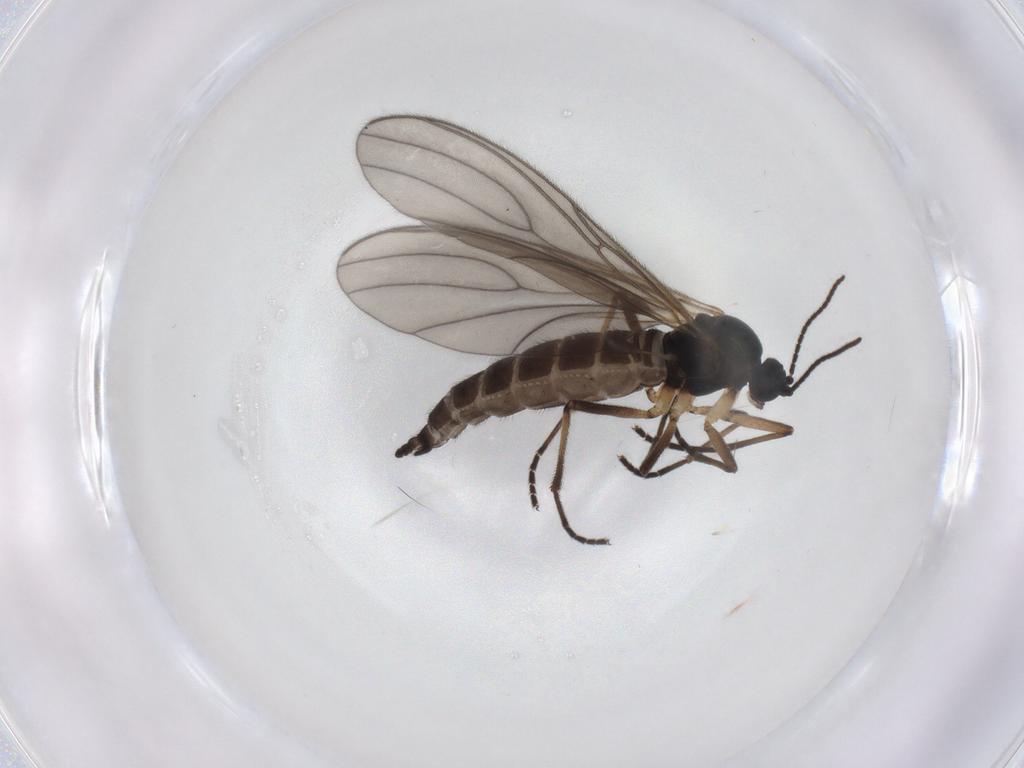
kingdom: Animalia
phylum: Arthropoda
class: Insecta
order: Diptera
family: Sciaridae
